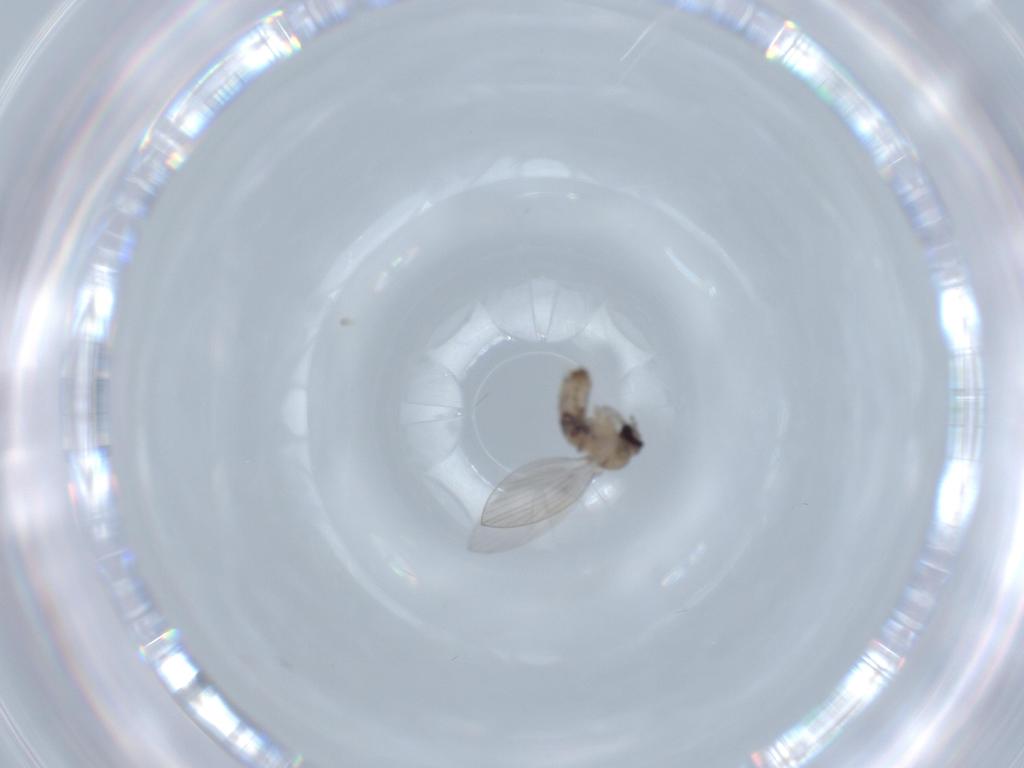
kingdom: Animalia
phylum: Arthropoda
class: Insecta
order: Diptera
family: Psychodidae
